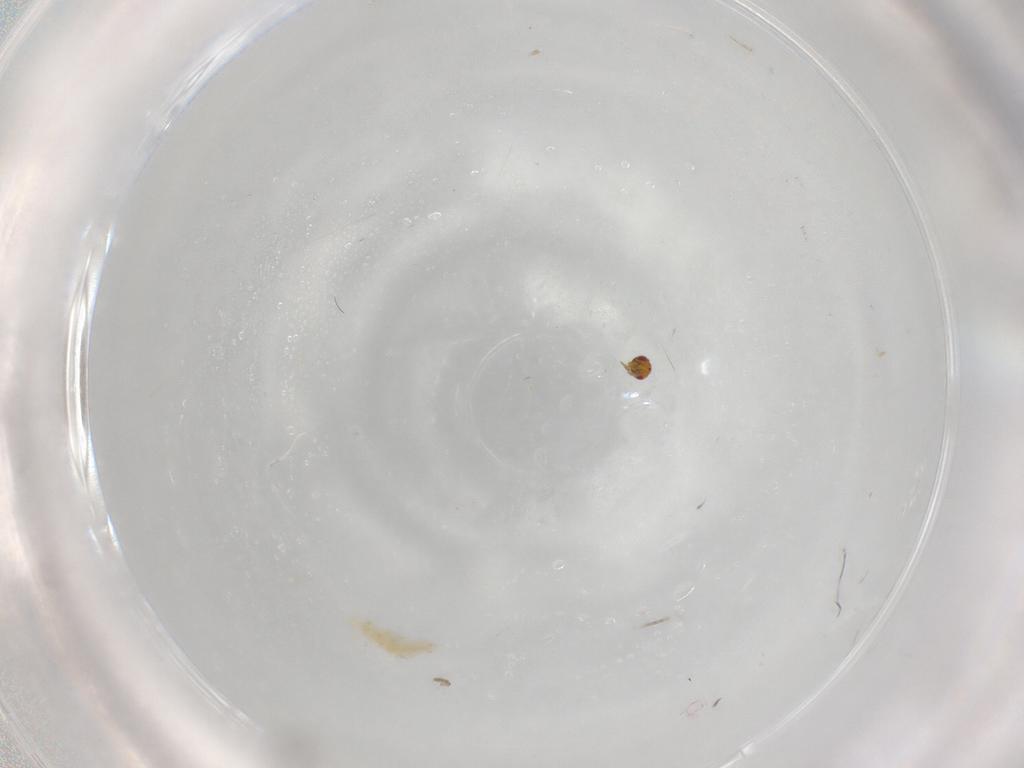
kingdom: Animalia
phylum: Arthropoda
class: Insecta
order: Hymenoptera
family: Trichogrammatidae
